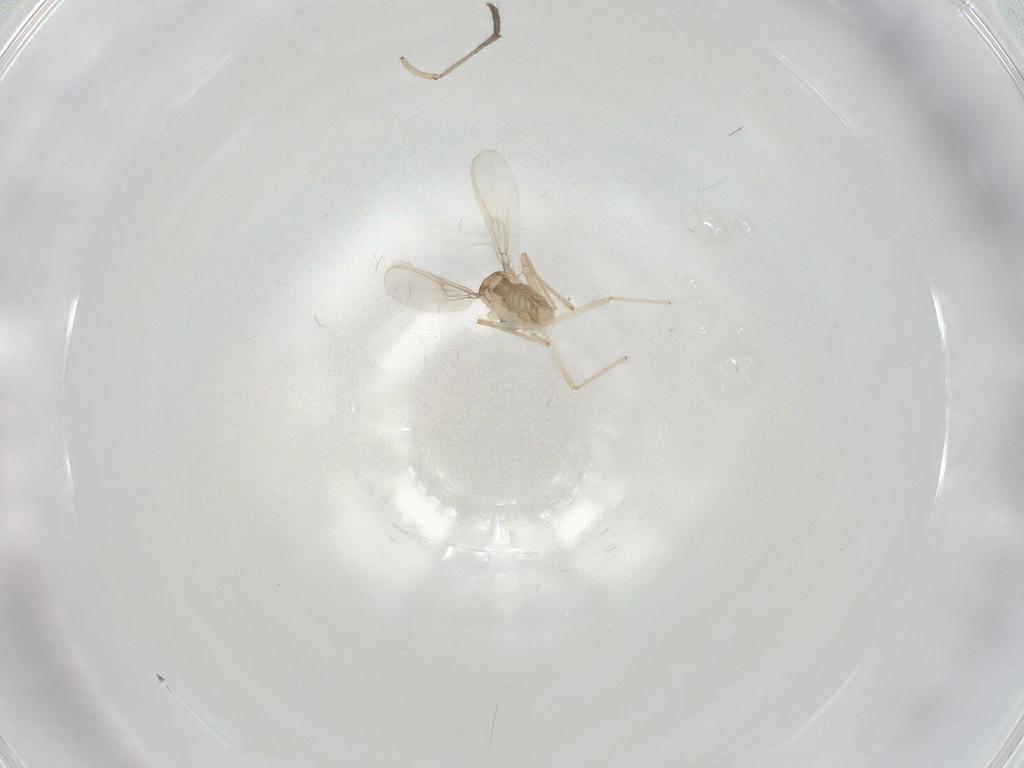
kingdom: Animalia
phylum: Arthropoda
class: Insecta
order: Diptera
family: Chironomidae
